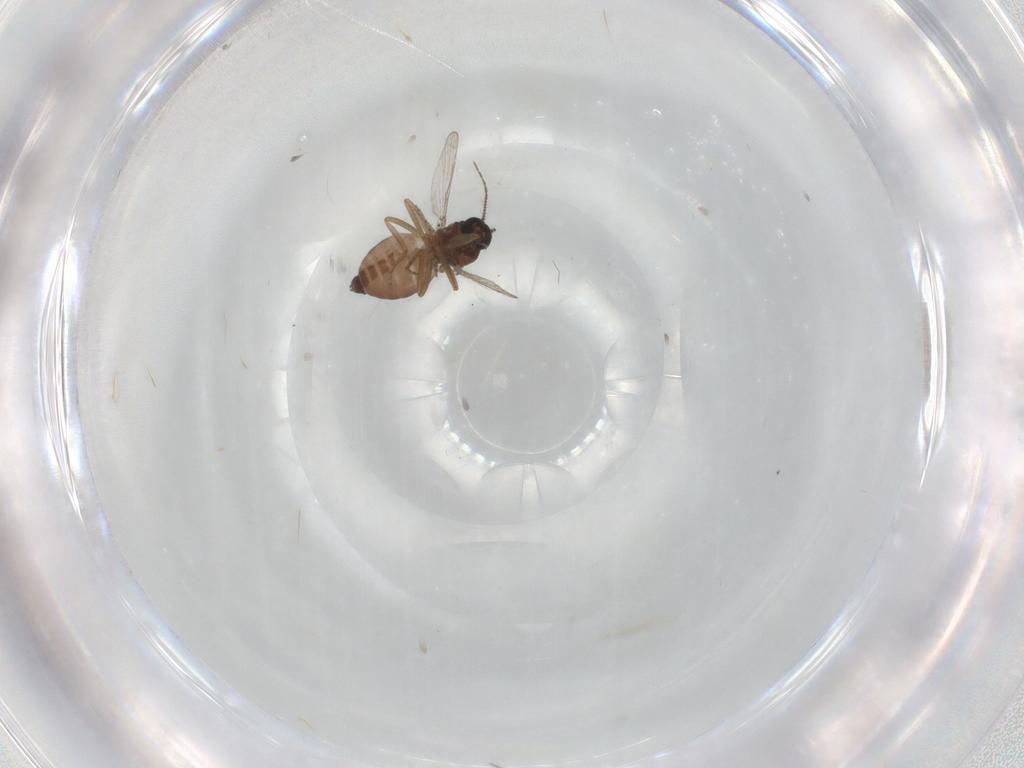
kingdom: Animalia
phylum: Arthropoda
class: Insecta
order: Diptera
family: Ceratopogonidae
